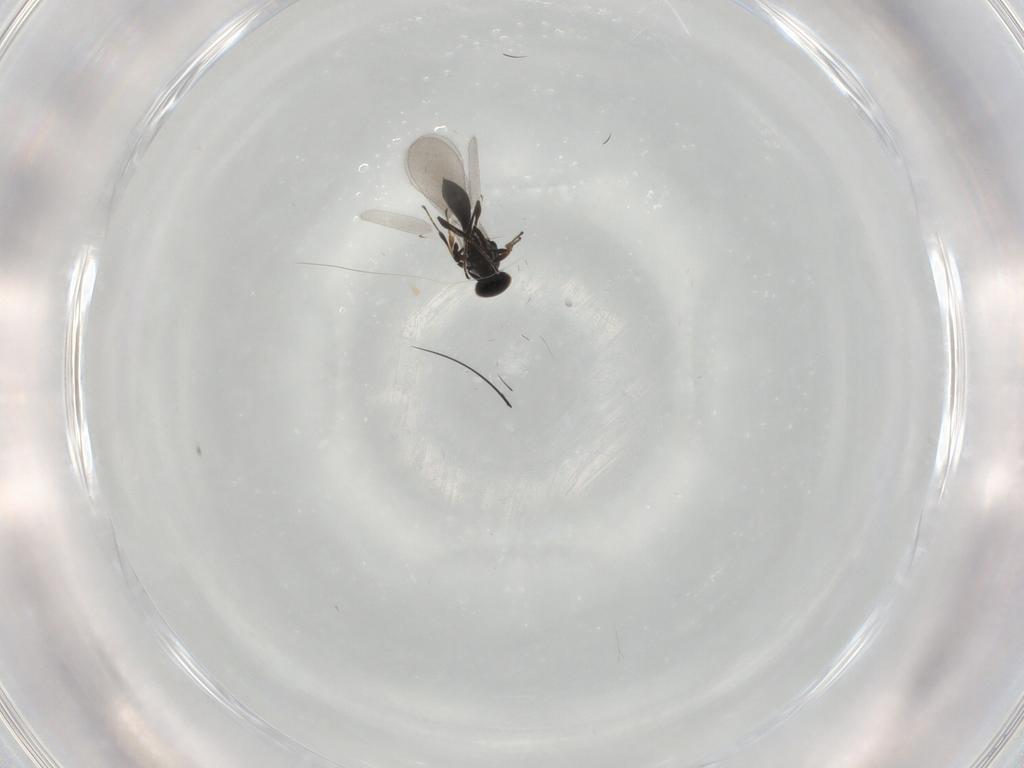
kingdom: Animalia
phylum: Arthropoda
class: Insecta
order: Hymenoptera
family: Platygastridae
